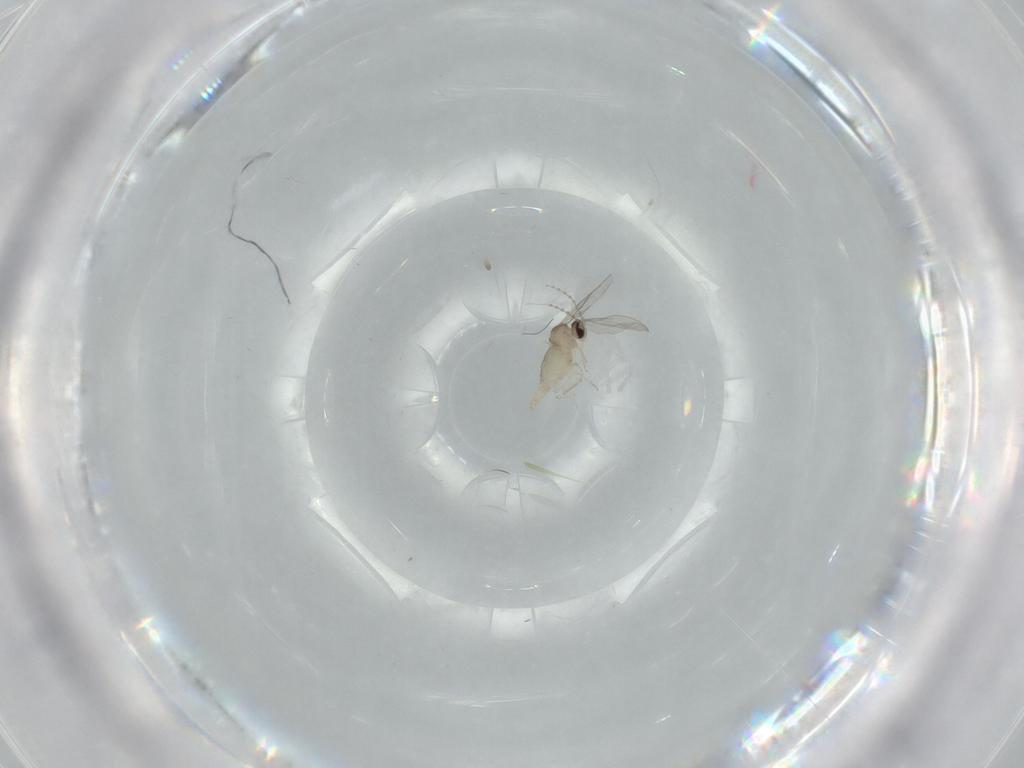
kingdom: Animalia
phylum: Arthropoda
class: Insecta
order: Diptera
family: Cecidomyiidae
